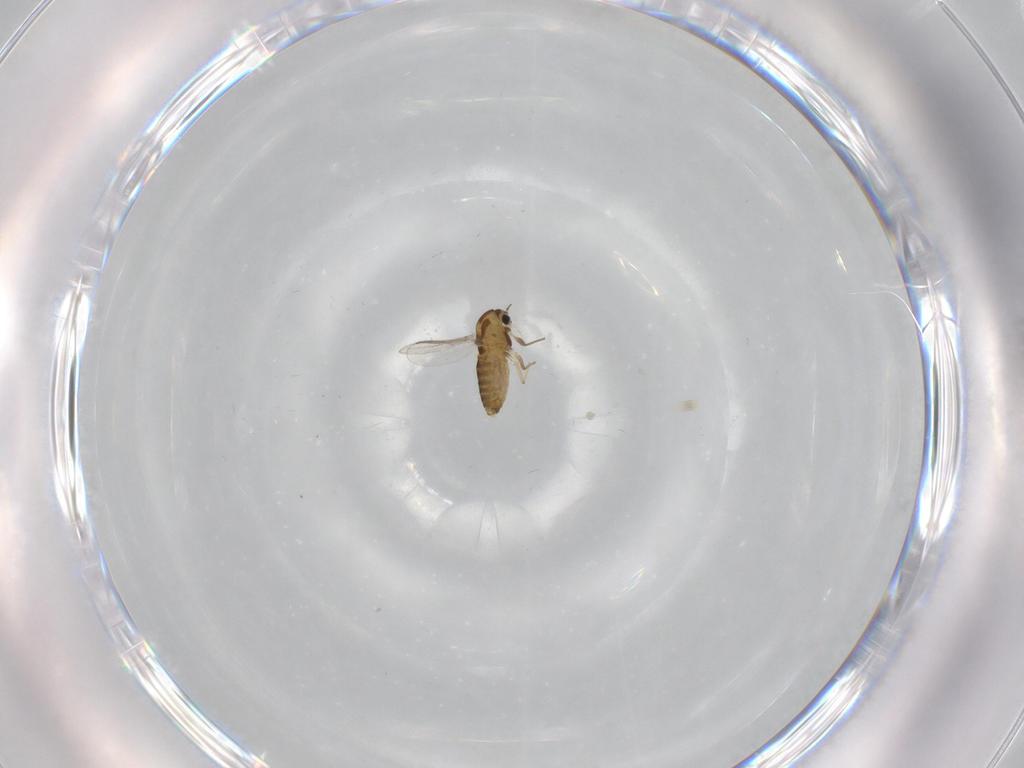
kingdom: Animalia
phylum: Arthropoda
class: Insecta
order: Diptera
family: Chironomidae
